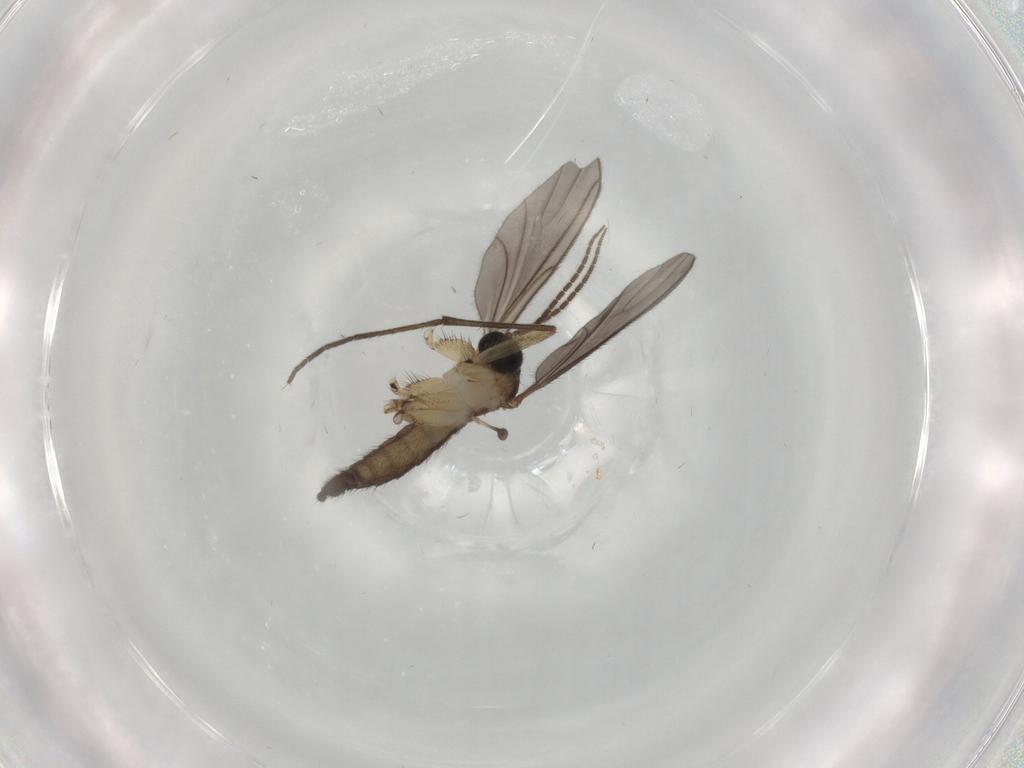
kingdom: Animalia
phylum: Arthropoda
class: Insecta
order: Diptera
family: Sciaridae
